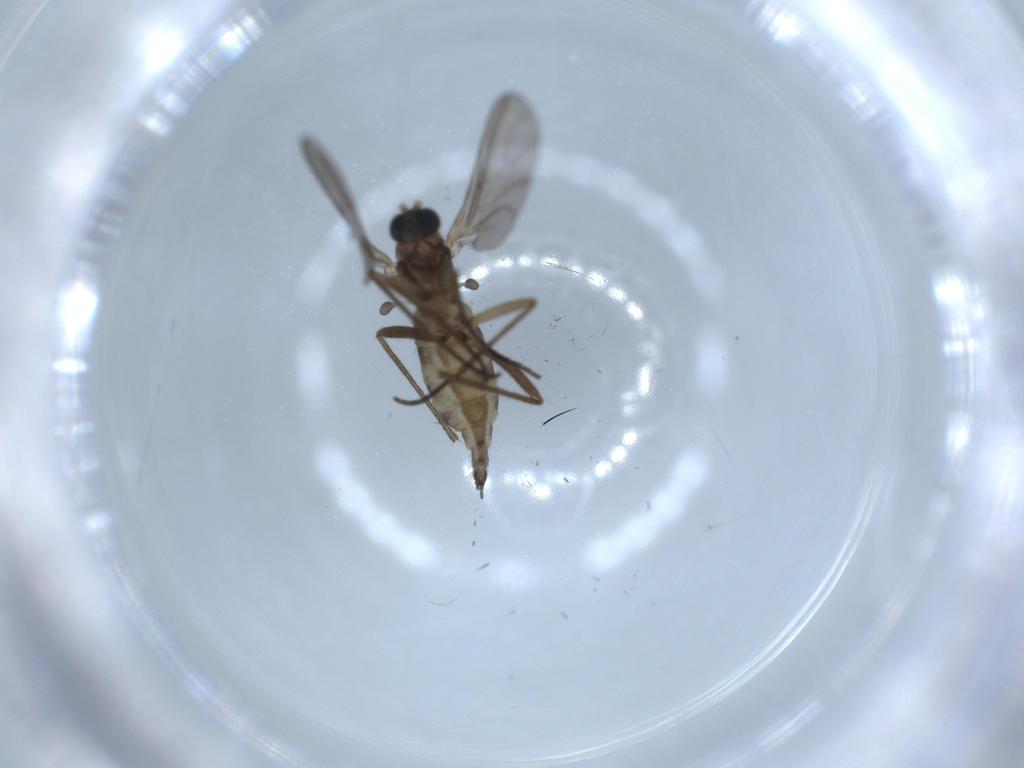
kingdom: Animalia
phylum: Arthropoda
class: Insecta
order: Diptera
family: Sciaridae
